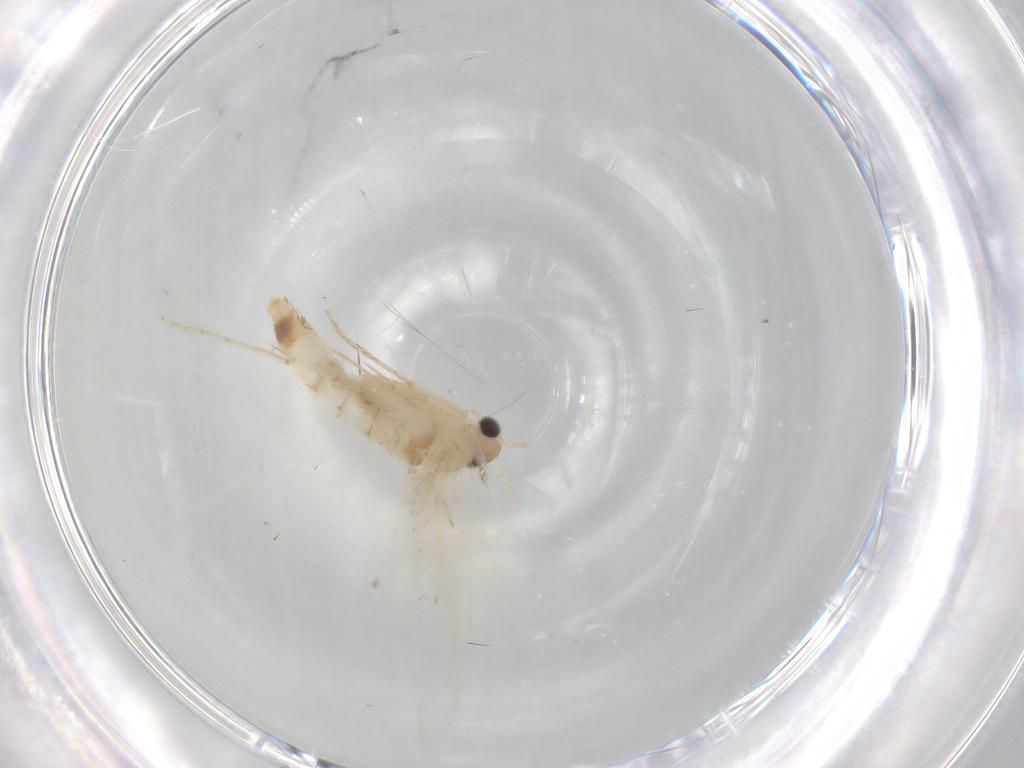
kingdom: Animalia
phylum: Arthropoda
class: Insecta
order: Lepidoptera
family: Dryadaulidae
